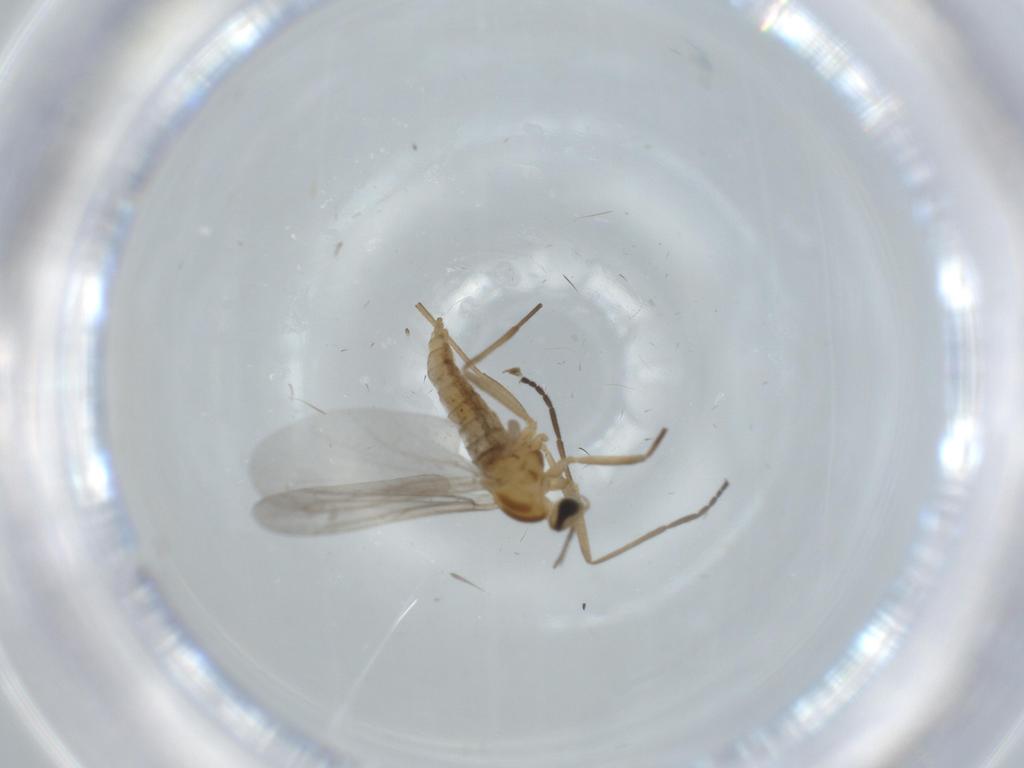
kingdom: Animalia
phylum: Arthropoda
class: Insecta
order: Diptera
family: Cecidomyiidae
